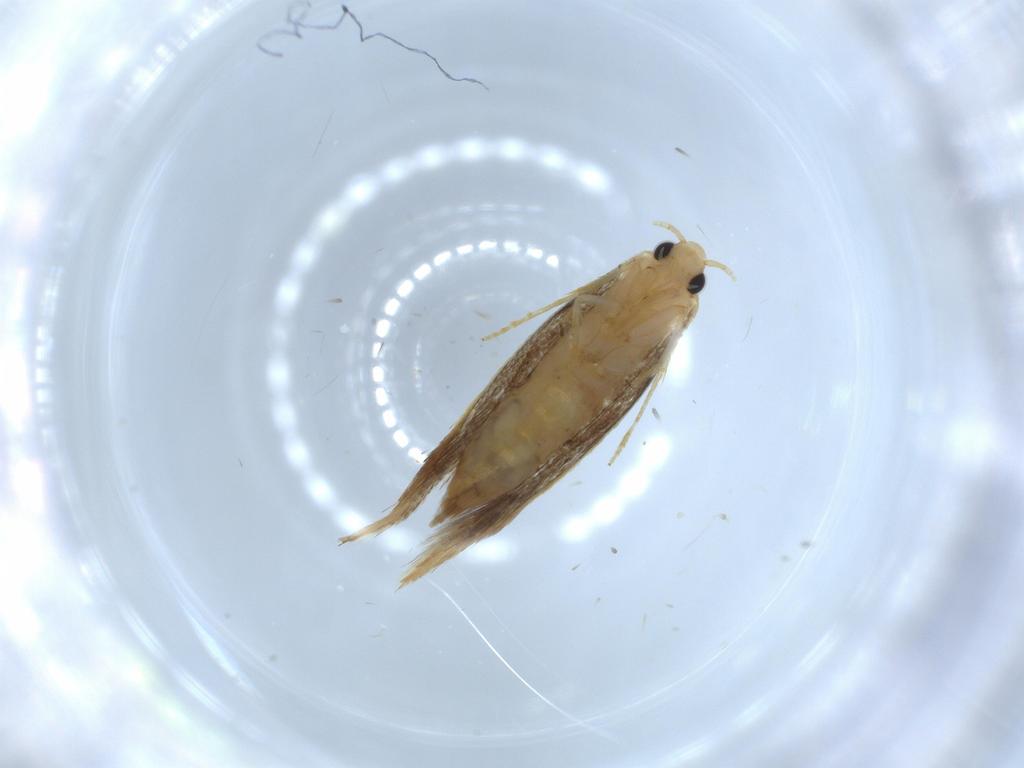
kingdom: Animalia
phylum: Arthropoda
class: Insecta
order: Lepidoptera
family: Tineidae
